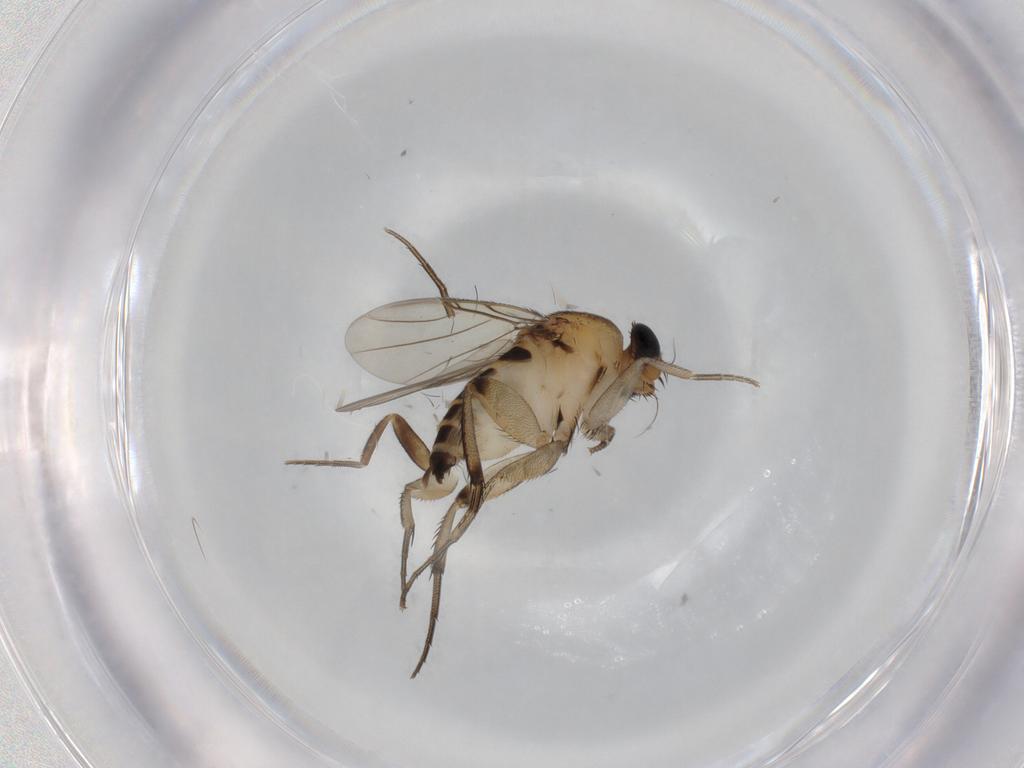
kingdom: Animalia
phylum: Arthropoda
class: Insecta
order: Diptera
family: Phoridae
